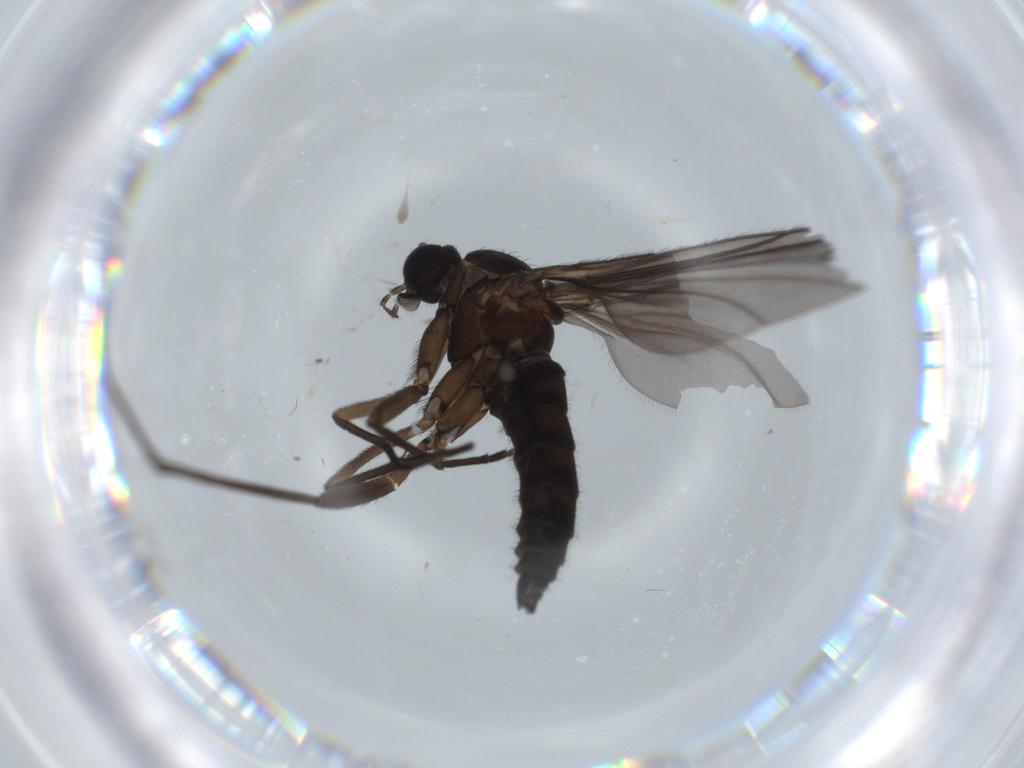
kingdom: Animalia
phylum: Arthropoda
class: Insecta
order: Diptera
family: Sciaridae
